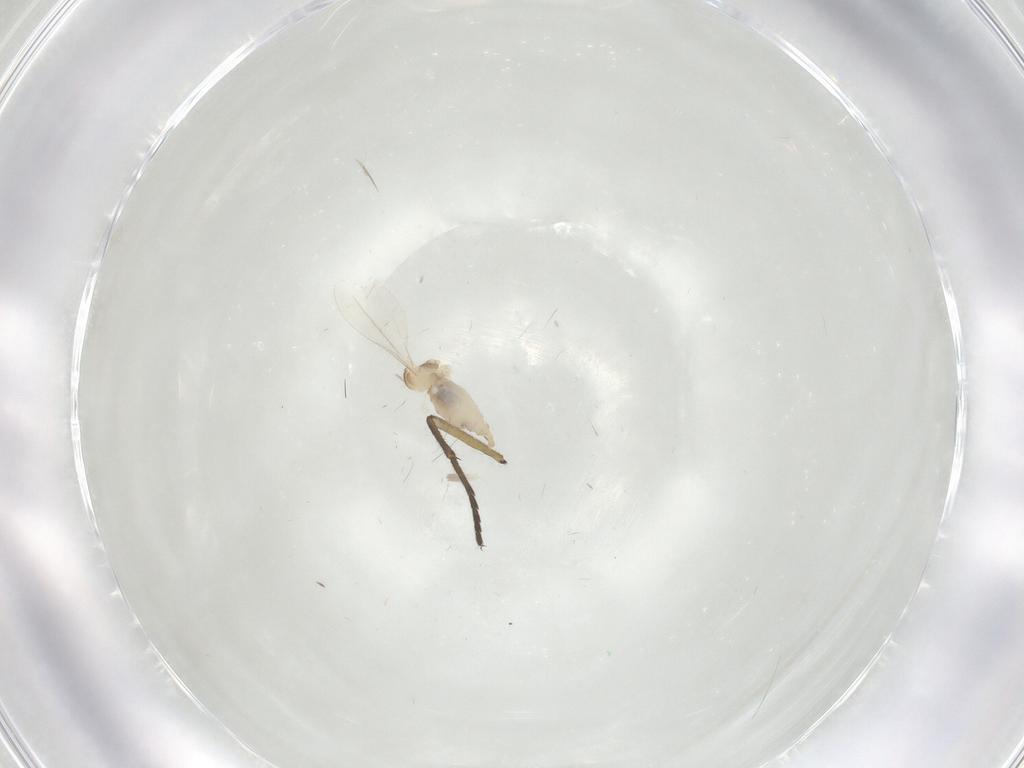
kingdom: Animalia
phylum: Arthropoda
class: Insecta
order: Diptera
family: Sciaridae
